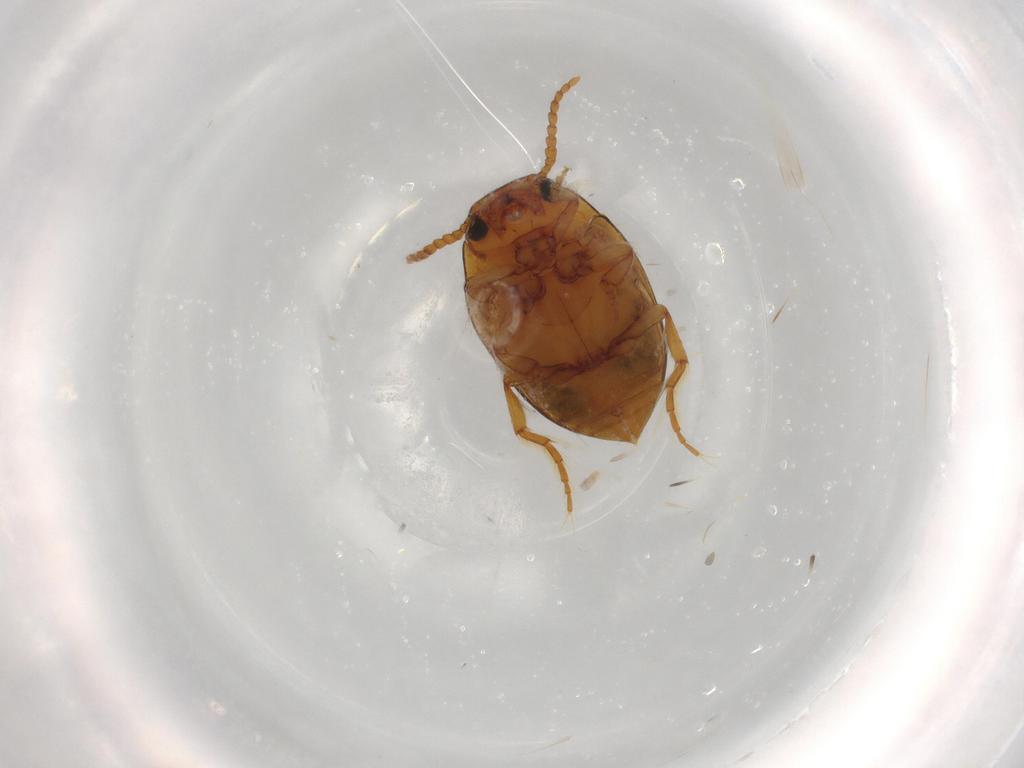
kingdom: Animalia
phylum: Arthropoda
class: Insecta
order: Coleoptera
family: Dytiscidae
